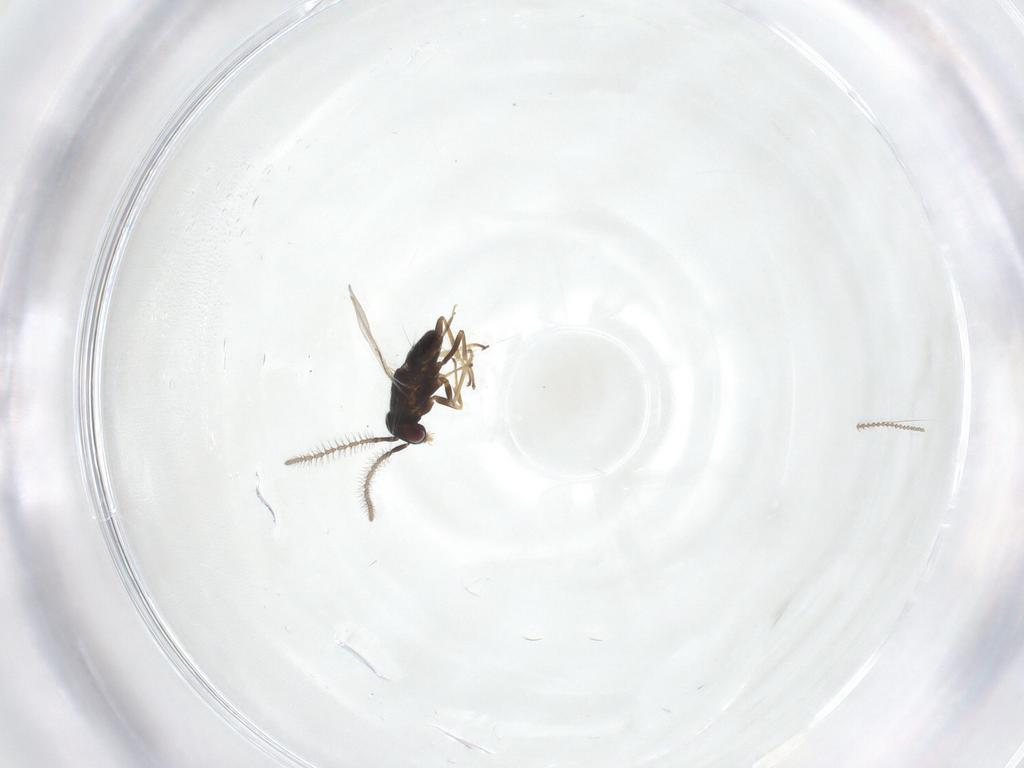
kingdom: Animalia
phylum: Arthropoda
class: Insecta
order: Hymenoptera
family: Encyrtidae
